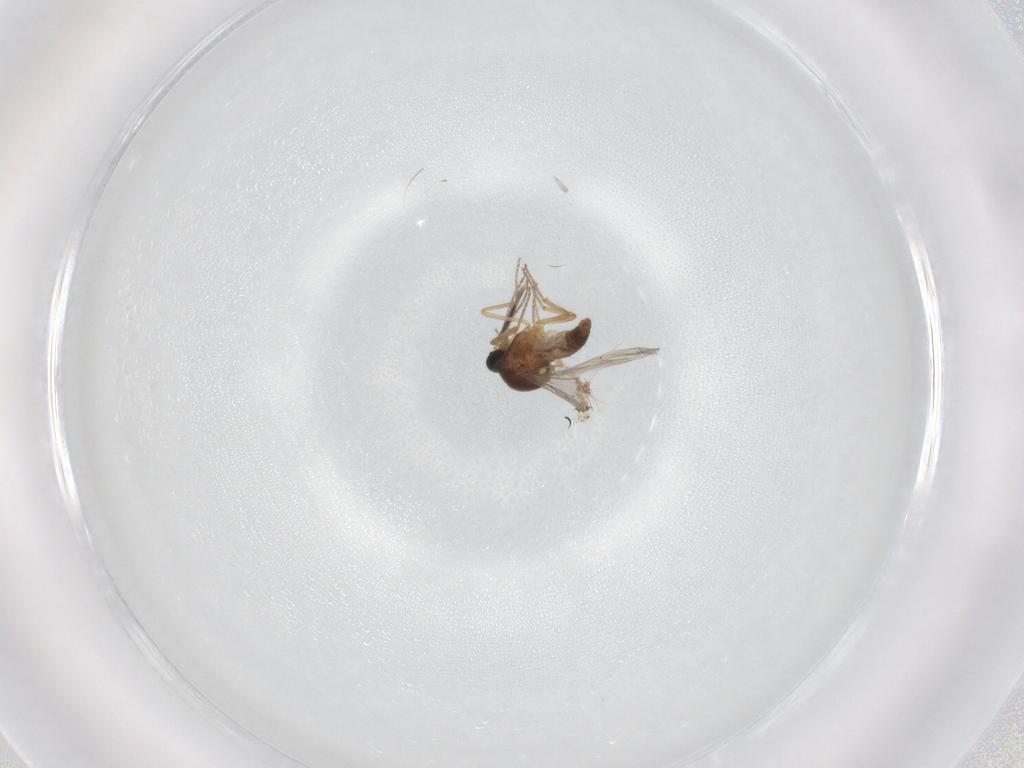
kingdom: Animalia
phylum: Arthropoda
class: Insecta
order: Diptera
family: Ceratopogonidae
